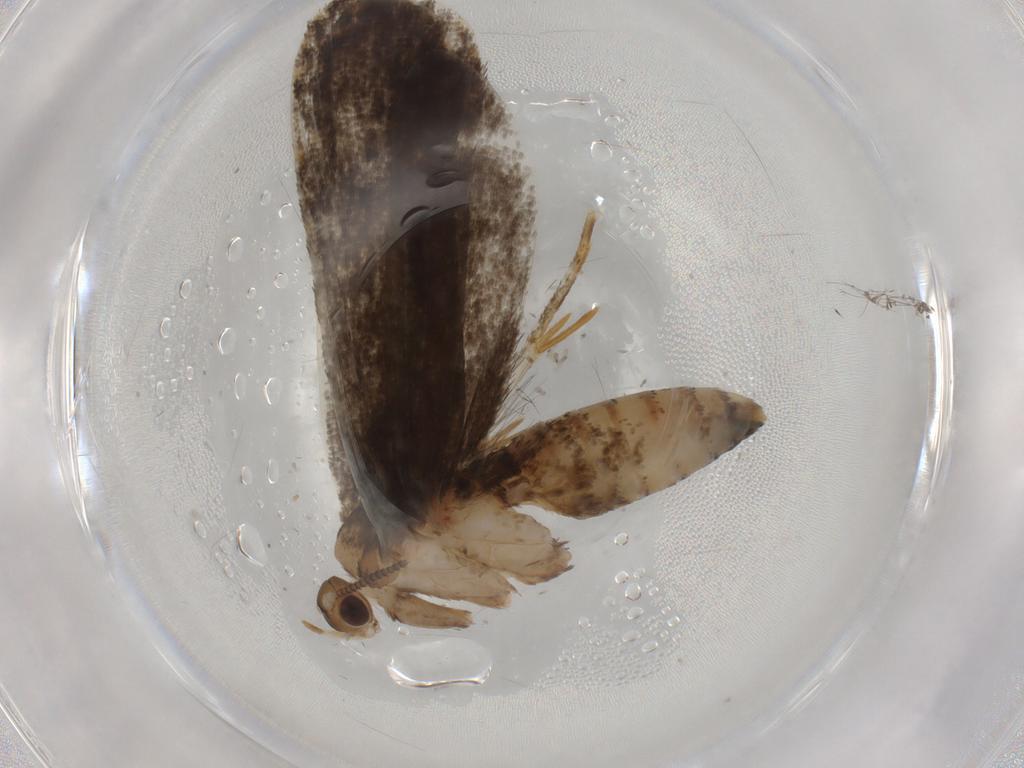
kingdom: Animalia
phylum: Arthropoda
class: Insecta
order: Lepidoptera
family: Tineidae
